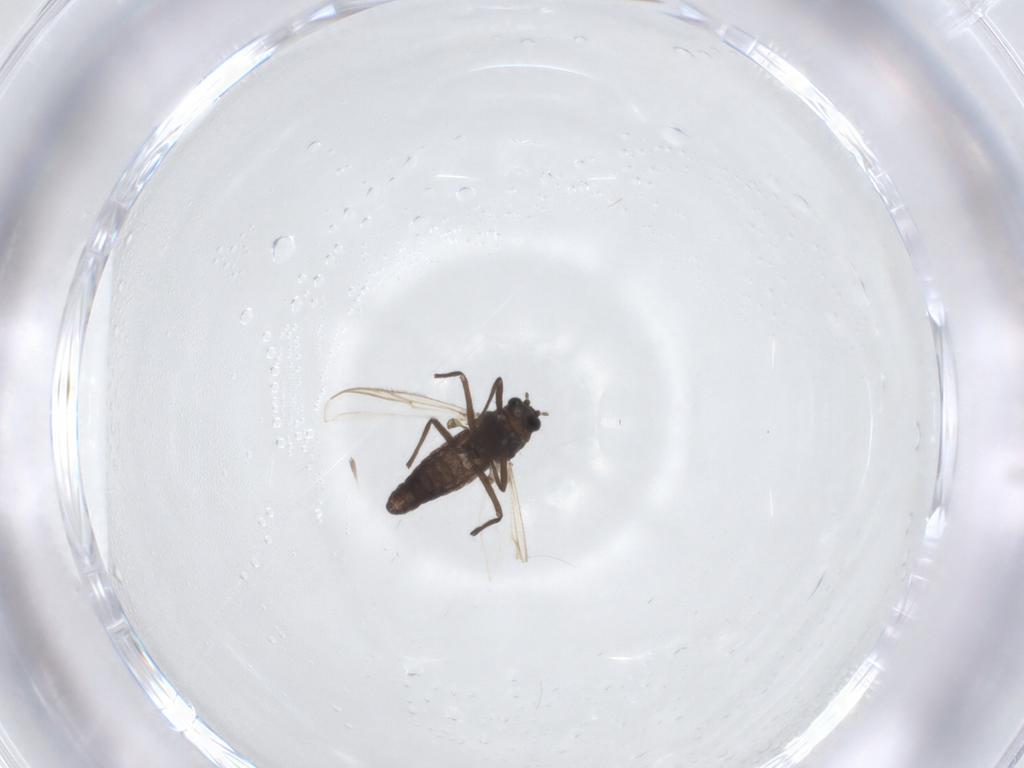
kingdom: Animalia
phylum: Arthropoda
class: Insecta
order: Diptera
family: Chironomidae
